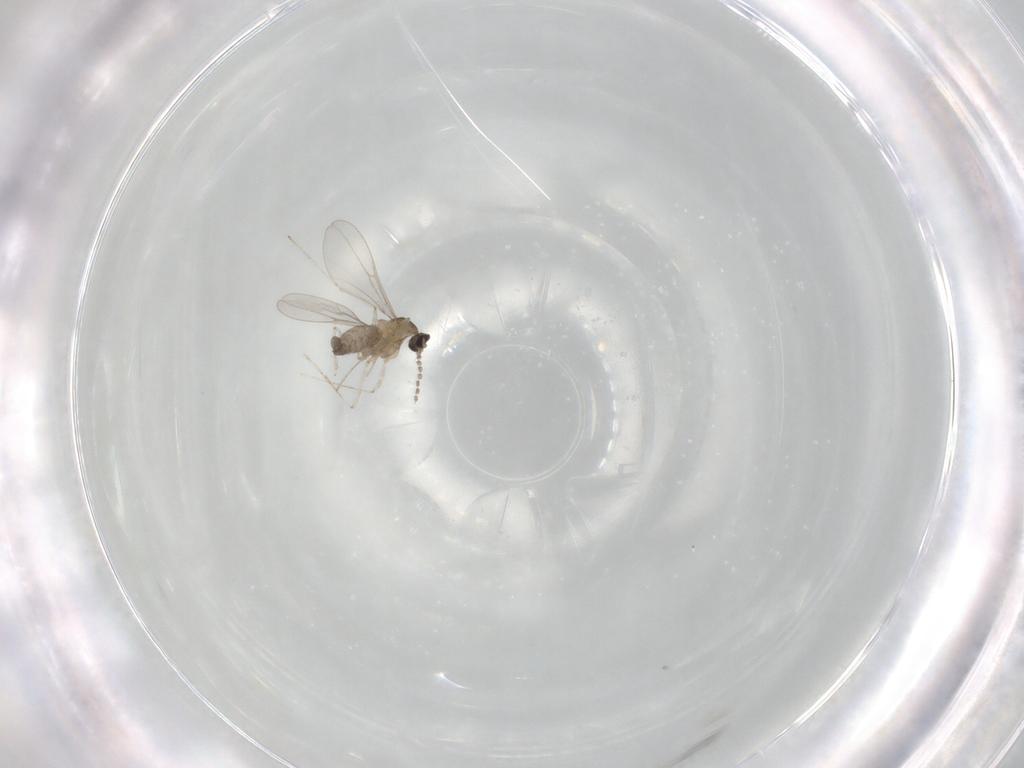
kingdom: Animalia
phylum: Arthropoda
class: Insecta
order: Diptera
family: Cecidomyiidae
